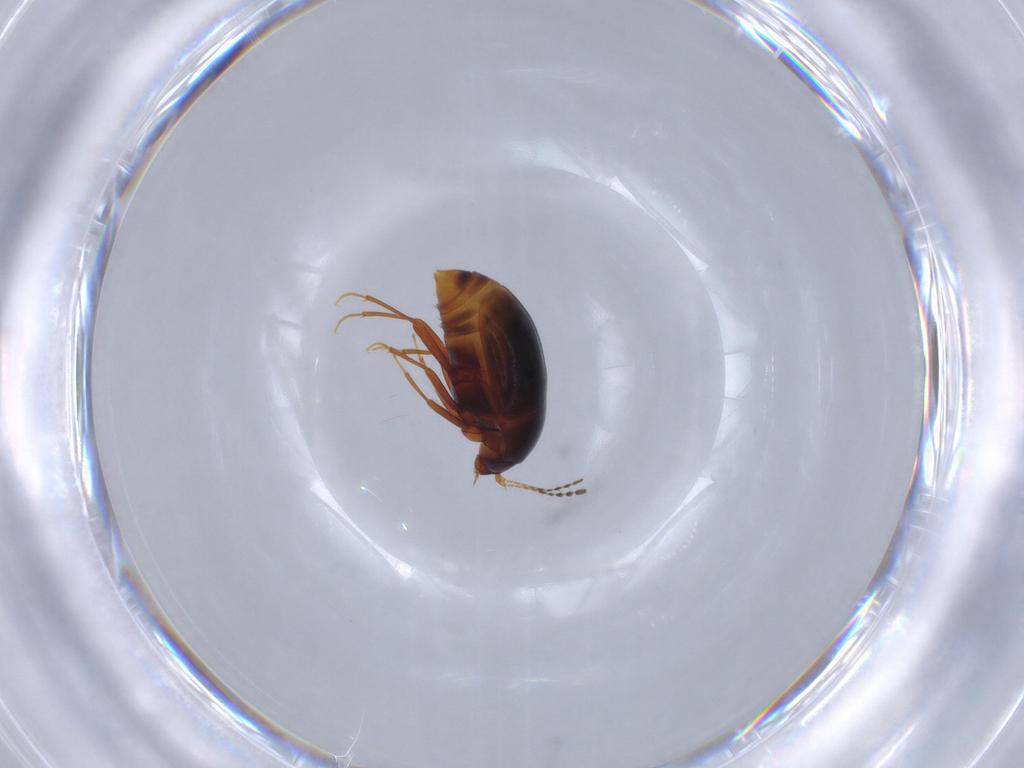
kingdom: Animalia
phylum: Arthropoda
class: Insecta
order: Coleoptera
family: Staphylinidae
